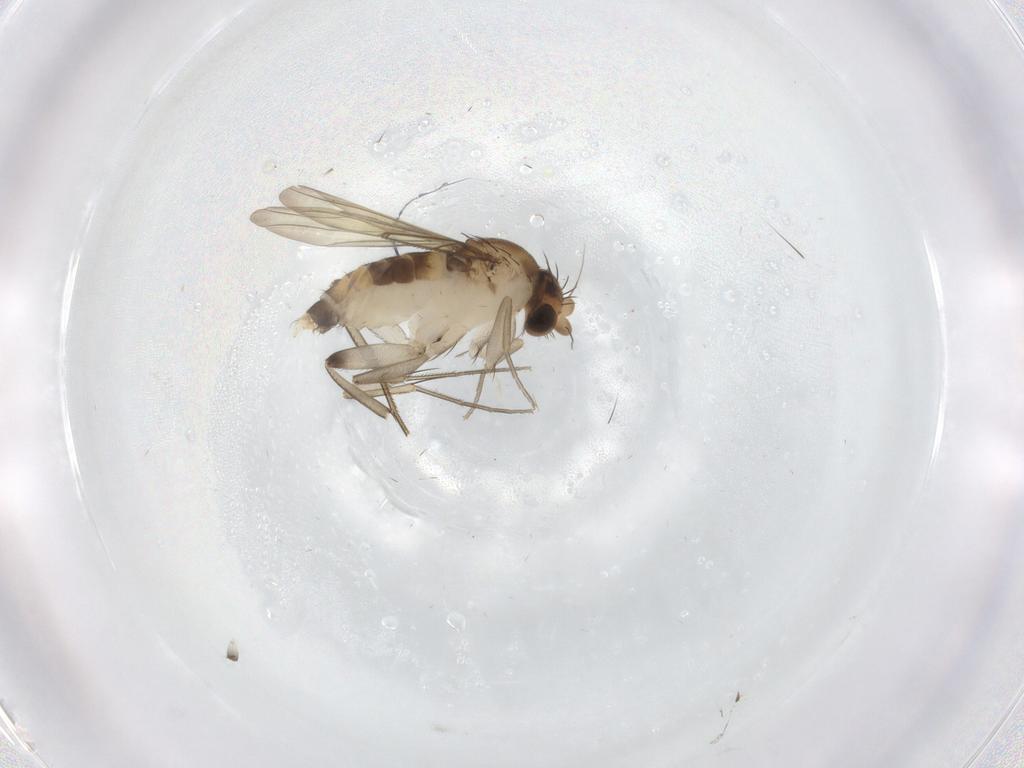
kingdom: Animalia
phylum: Arthropoda
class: Insecta
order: Diptera
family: Phoridae
